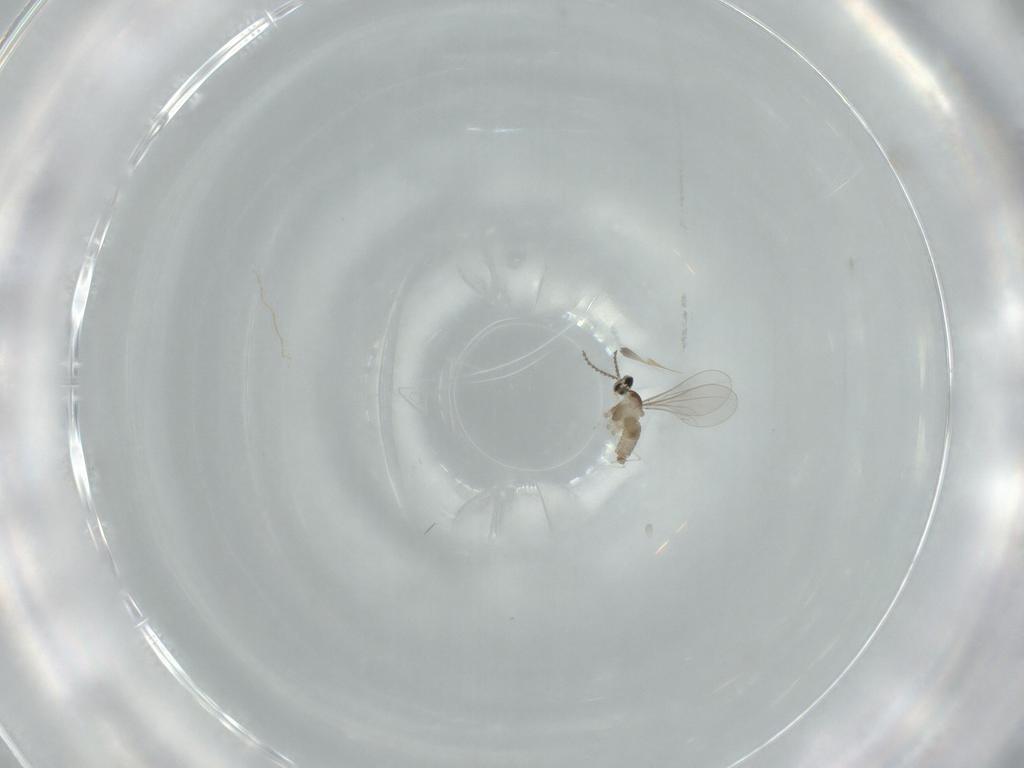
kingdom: Animalia
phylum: Arthropoda
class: Insecta
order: Diptera
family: Cecidomyiidae
